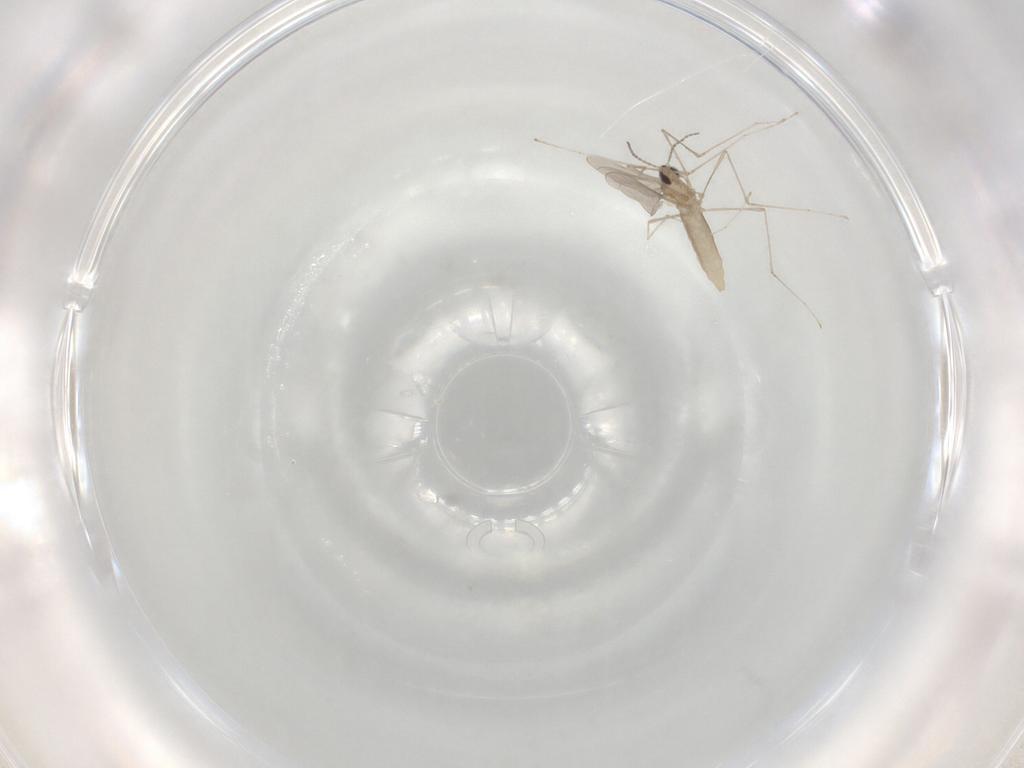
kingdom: Animalia
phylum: Arthropoda
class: Insecta
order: Diptera
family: Cecidomyiidae
